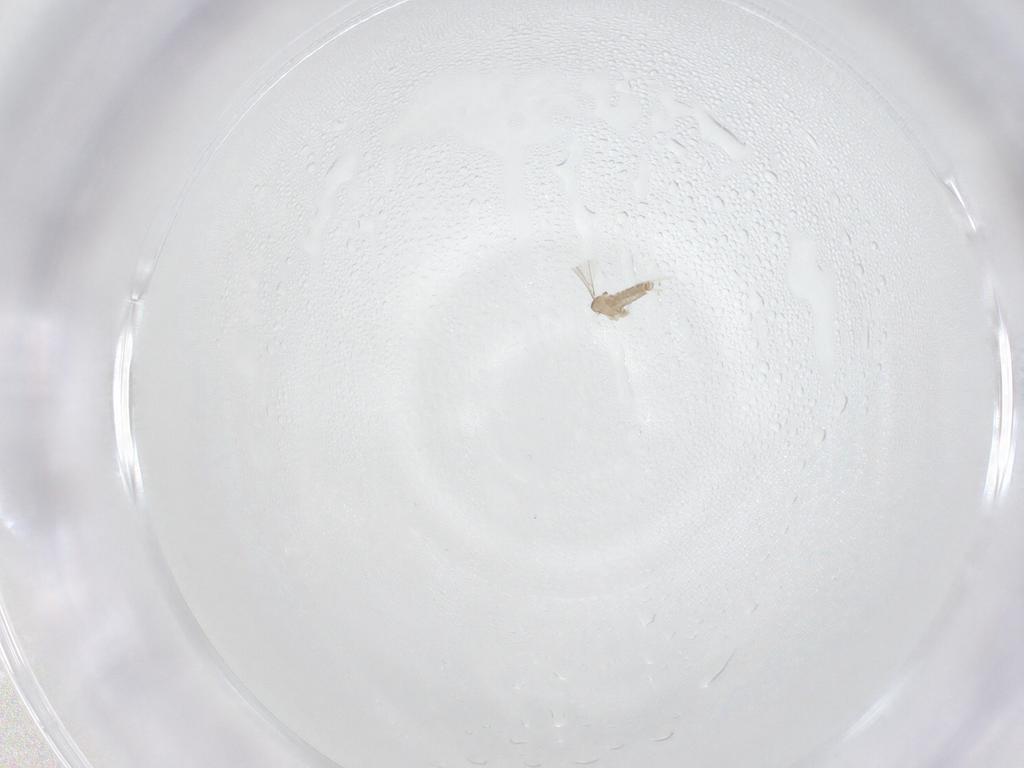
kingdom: Animalia
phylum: Arthropoda
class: Insecta
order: Diptera
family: Cecidomyiidae
